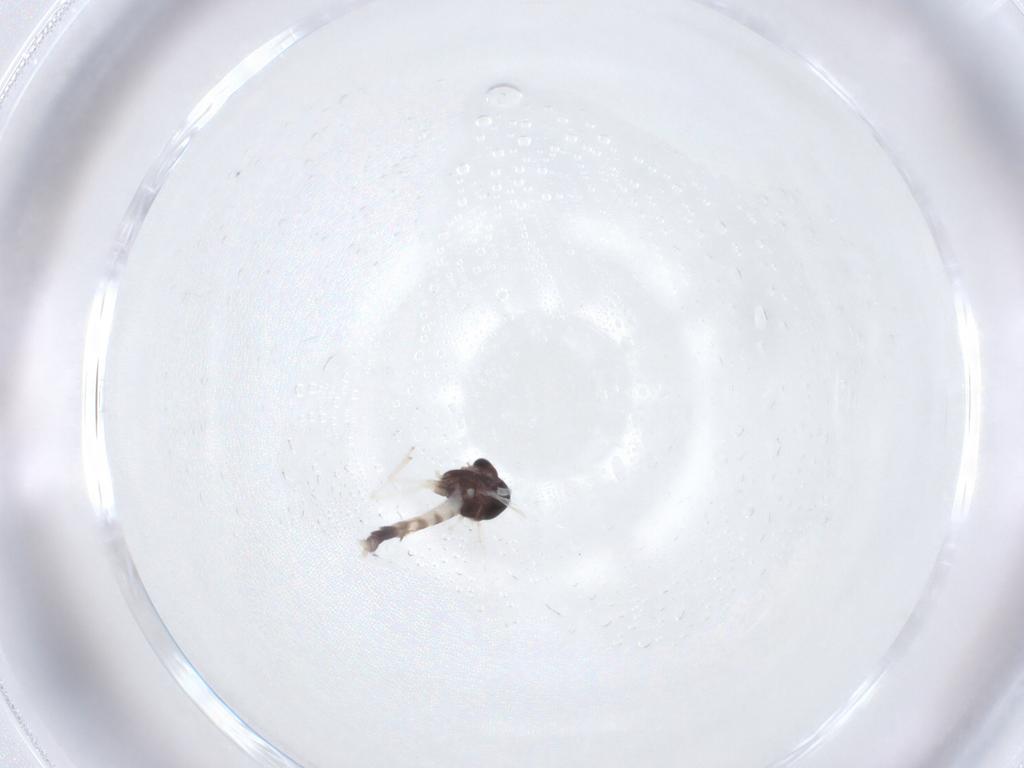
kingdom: Animalia
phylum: Arthropoda
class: Insecta
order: Diptera
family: Chironomidae
